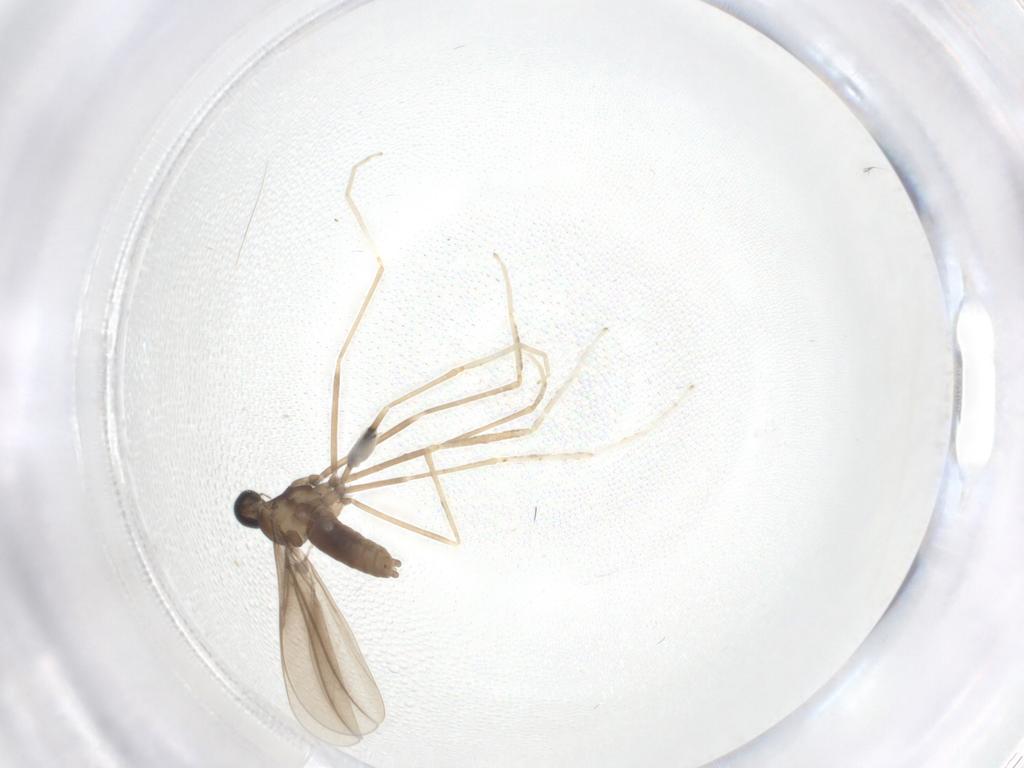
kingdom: Animalia
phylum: Arthropoda
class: Insecta
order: Diptera
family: Cecidomyiidae
